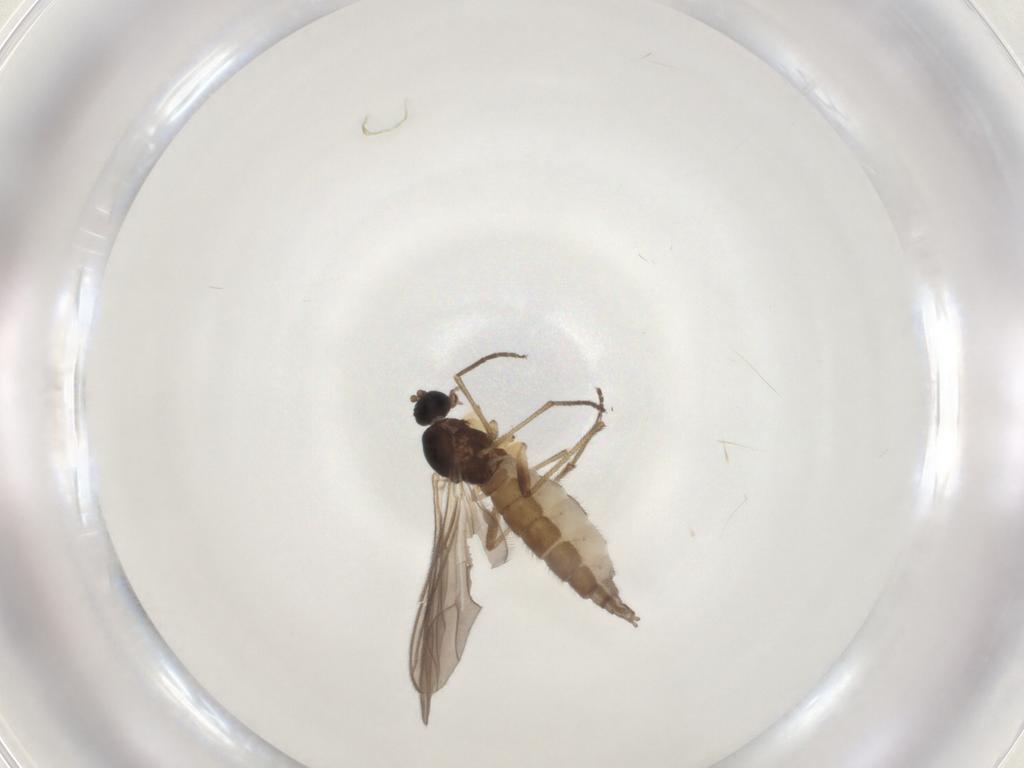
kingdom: Animalia
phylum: Arthropoda
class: Insecta
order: Diptera
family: Sciaridae
